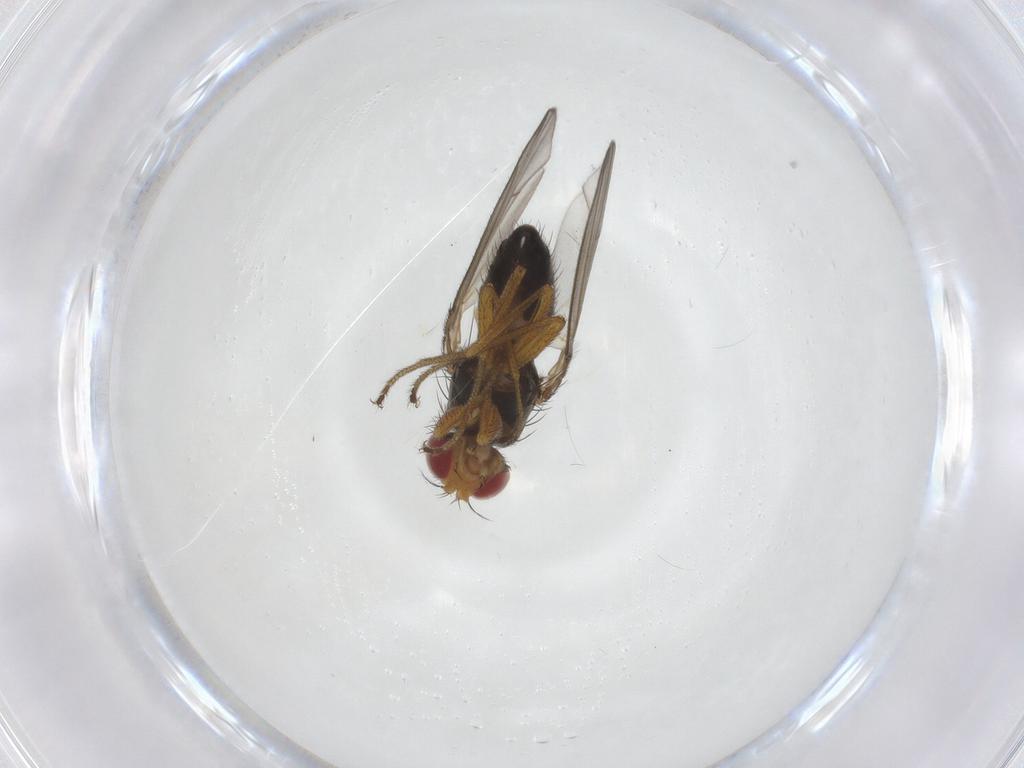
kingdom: Animalia
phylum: Arthropoda
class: Insecta
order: Diptera
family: Drosophilidae
